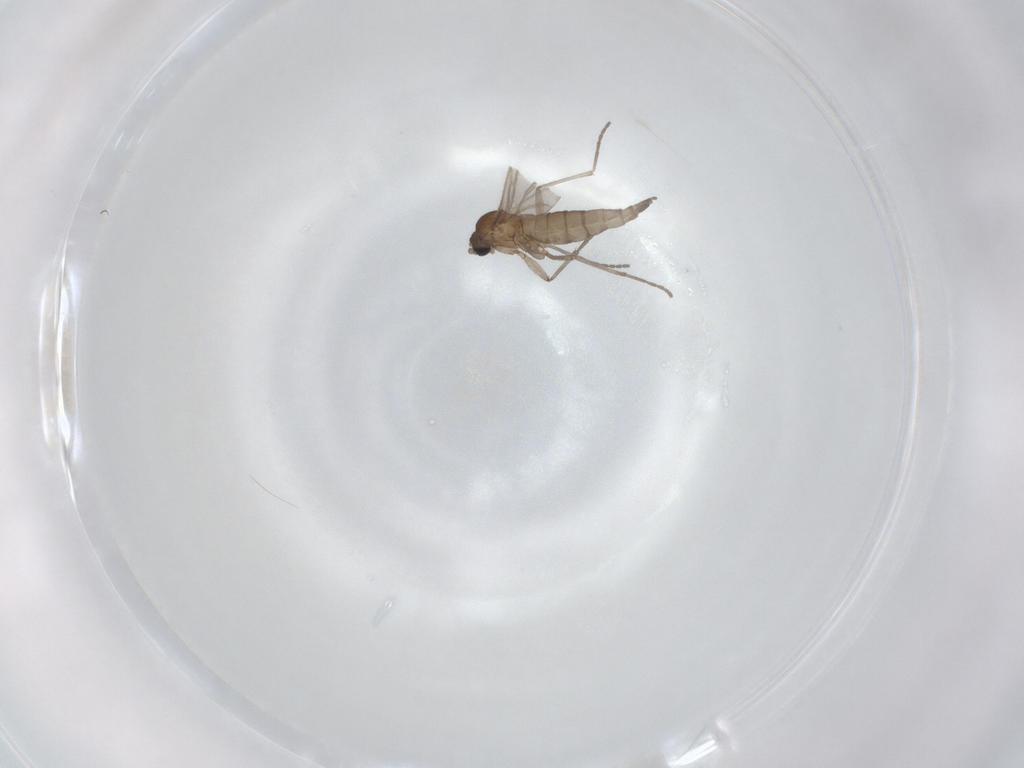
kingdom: Animalia
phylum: Arthropoda
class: Insecta
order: Diptera
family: Sciaridae
